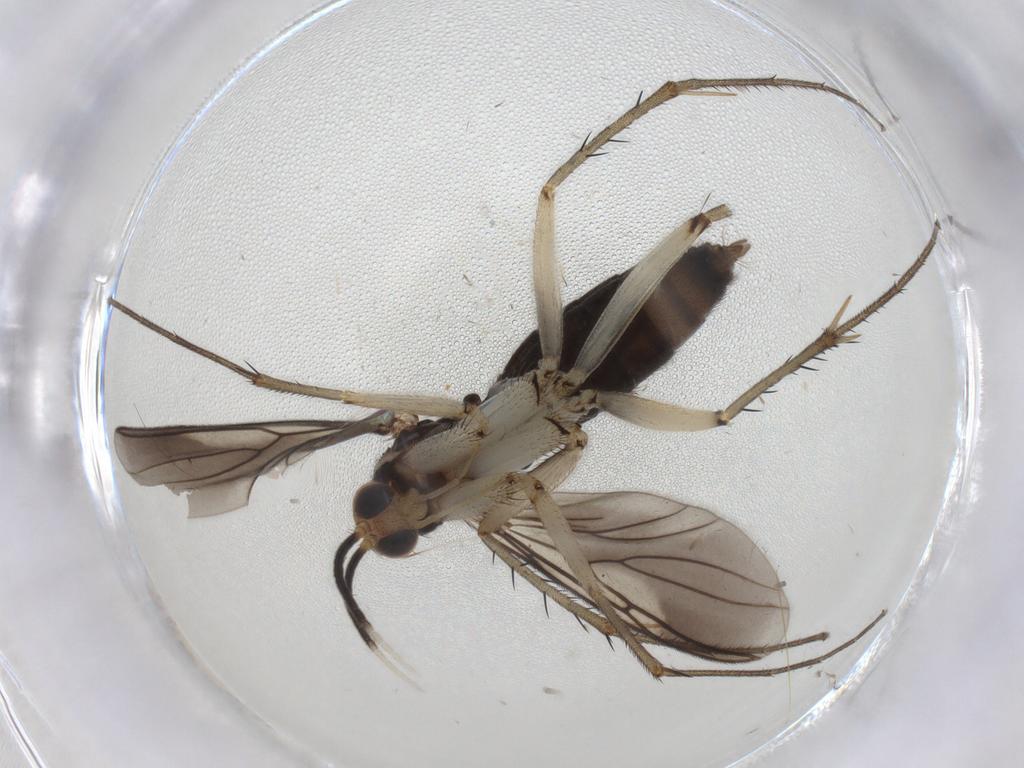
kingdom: Animalia
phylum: Arthropoda
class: Insecta
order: Diptera
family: Mycetophilidae
